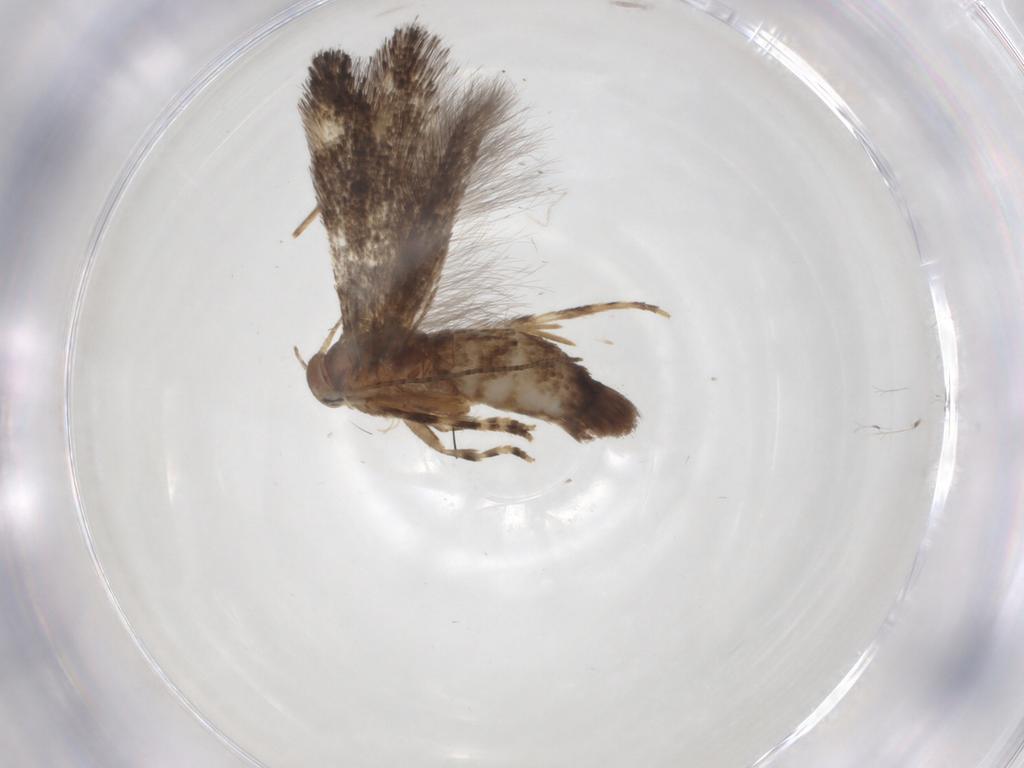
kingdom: Animalia
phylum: Arthropoda
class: Insecta
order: Lepidoptera
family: Elachistidae
